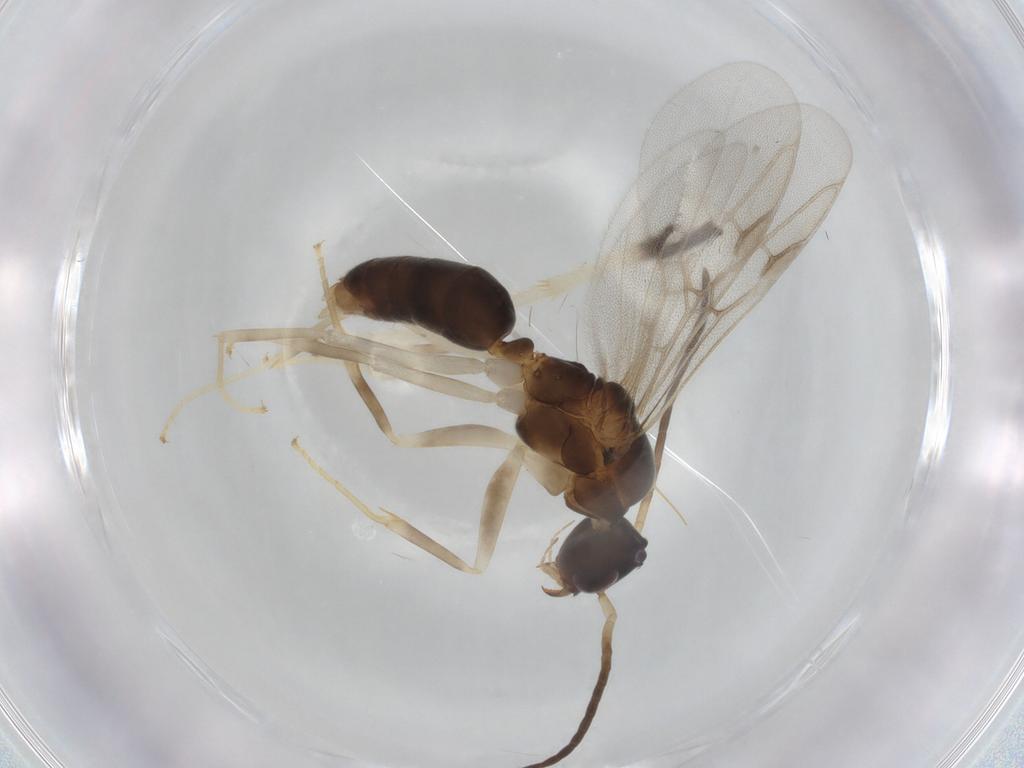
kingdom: Animalia
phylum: Arthropoda
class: Insecta
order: Hymenoptera
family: Formicidae
